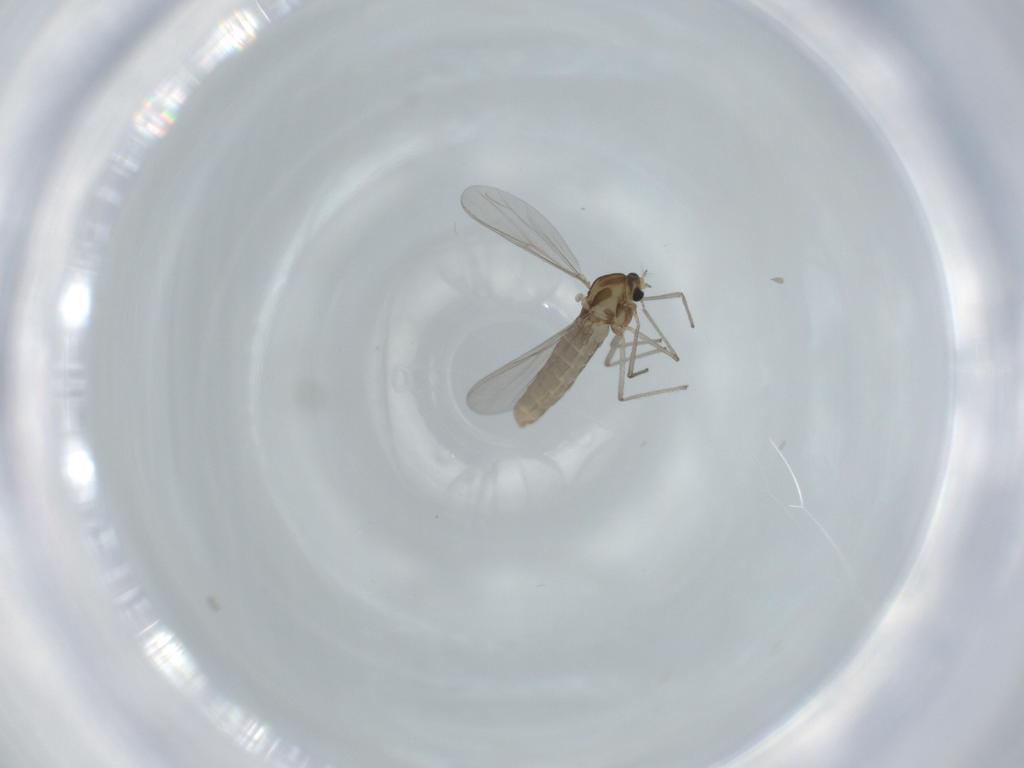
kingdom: Animalia
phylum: Arthropoda
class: Insecta
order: Diptera
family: Chironomidae
